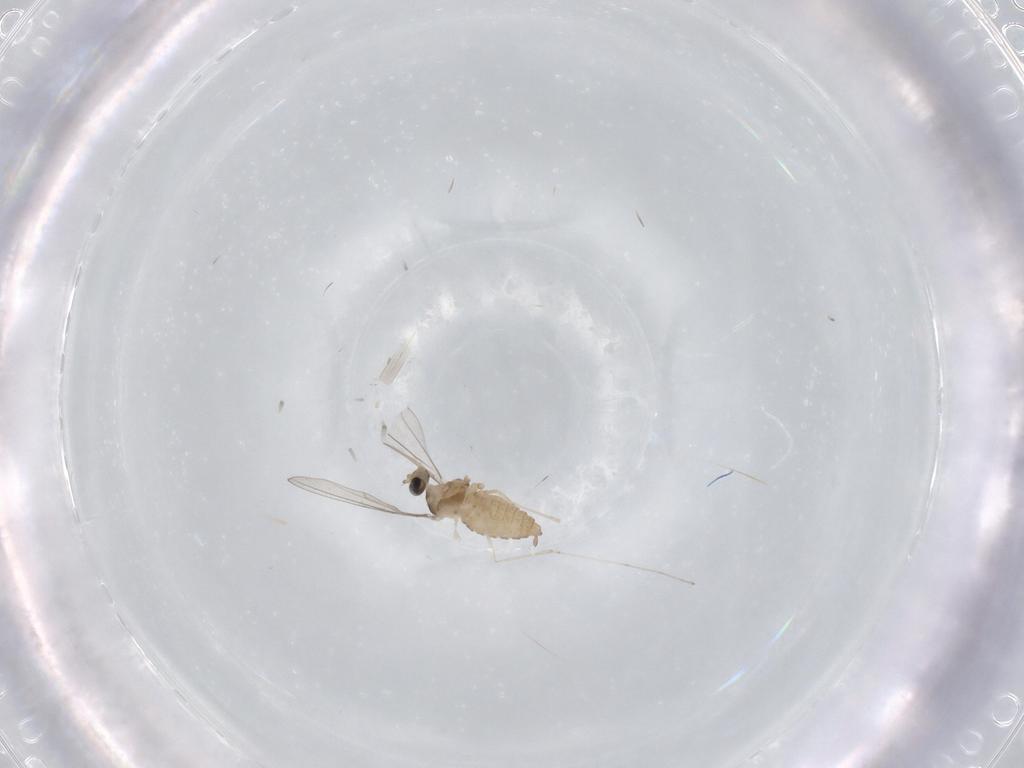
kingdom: Animalia
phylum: Arthropoda
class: Insecta
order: Diptera
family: Cecidomyiidae
